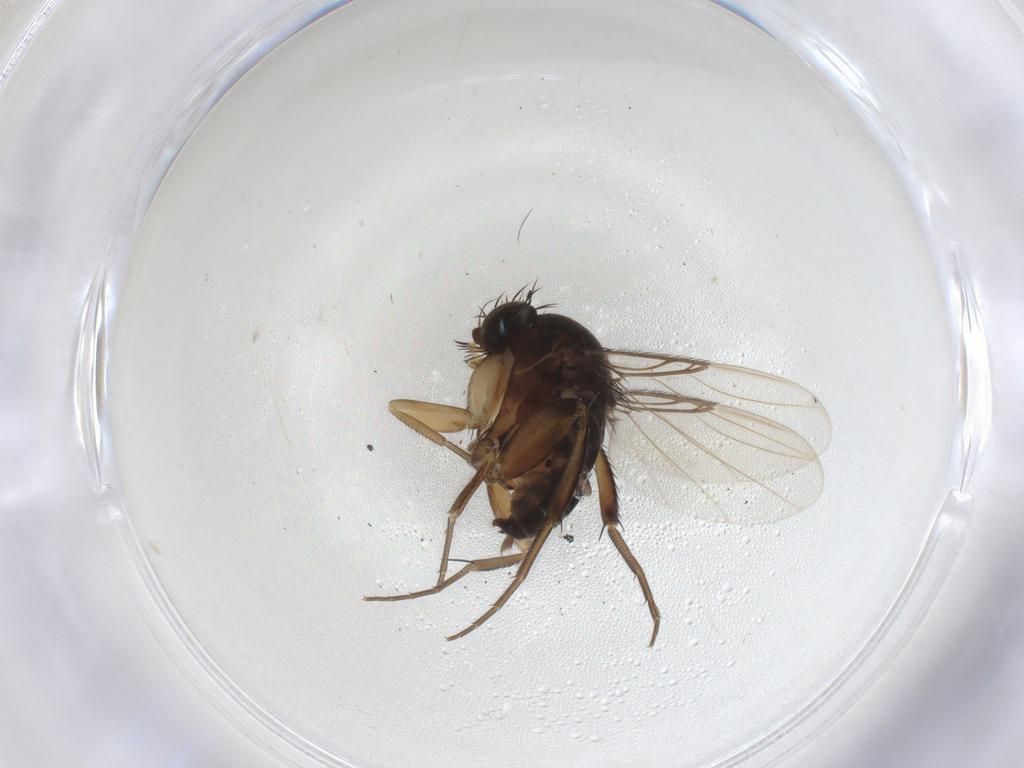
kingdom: Animalia
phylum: Arthropoda
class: Insecta
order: Diptera
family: Phoridae
